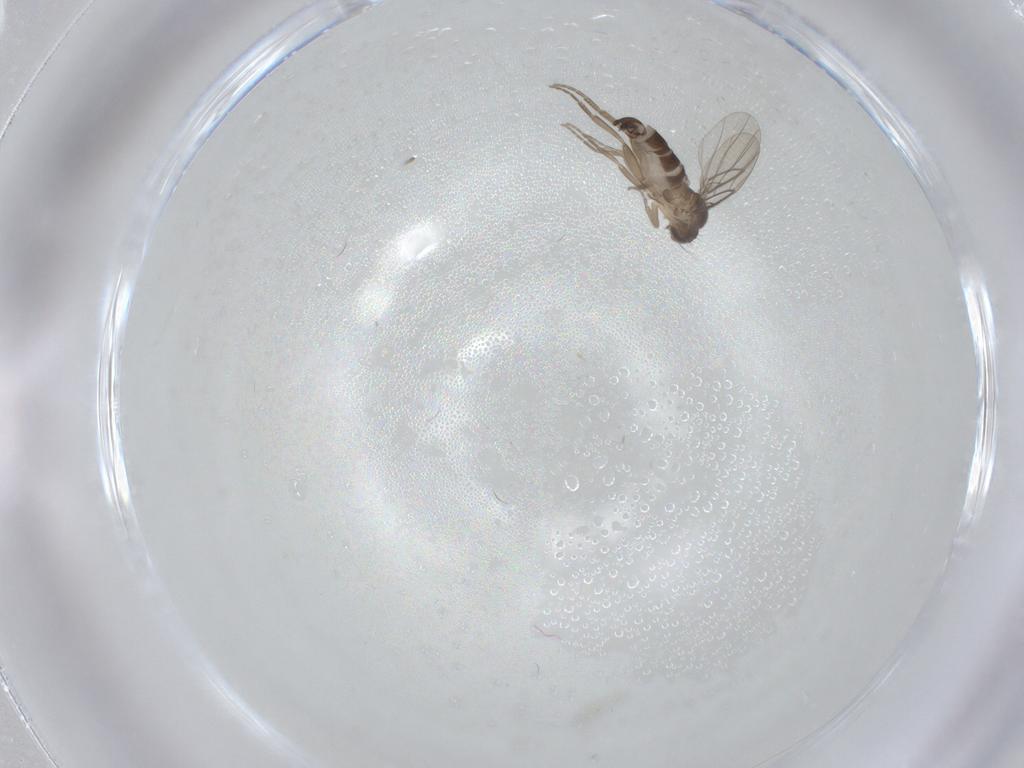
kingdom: Animalia
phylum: Arthropoda
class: Insecta
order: Diptera
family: Phoridae
